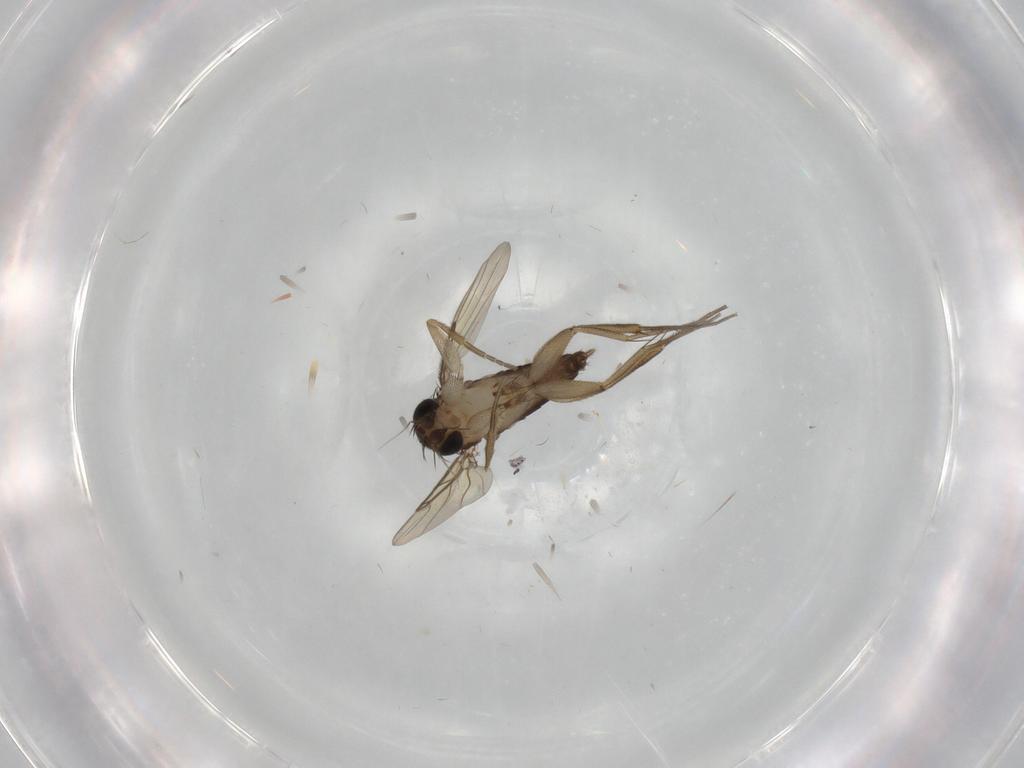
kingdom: Animalia
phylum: Arthropoda
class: Insecta
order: Diptera
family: Phoridae
